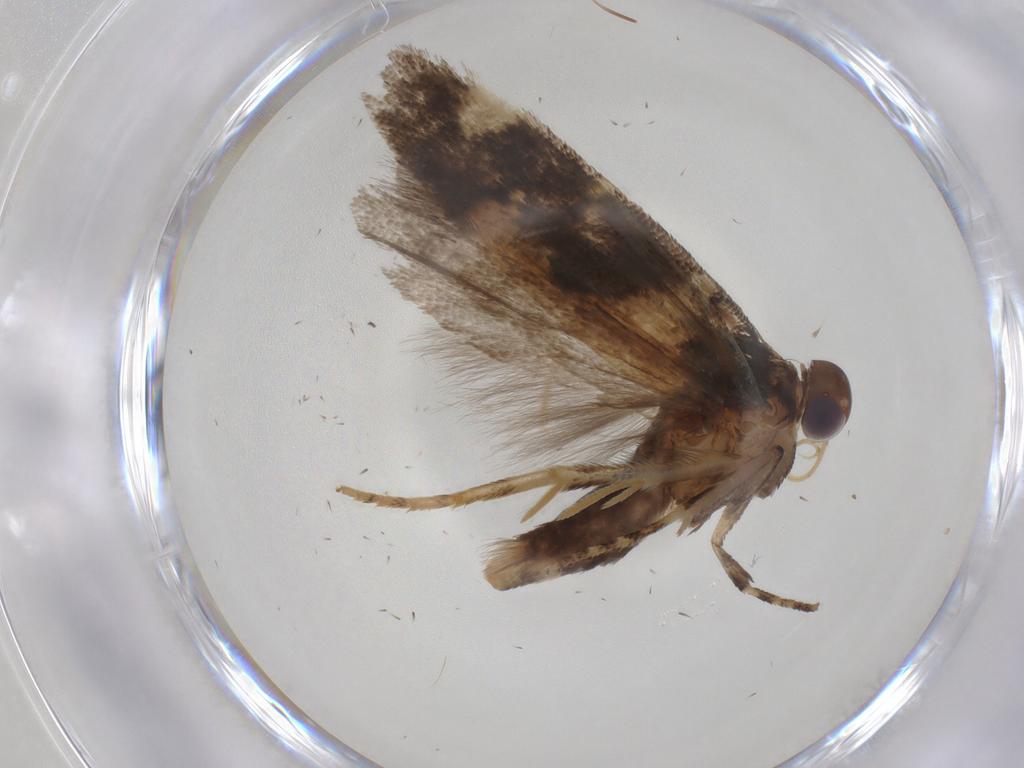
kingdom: Animalia
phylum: Arthropoda
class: Insecta
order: Lepidoptera
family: Gelechiidae
